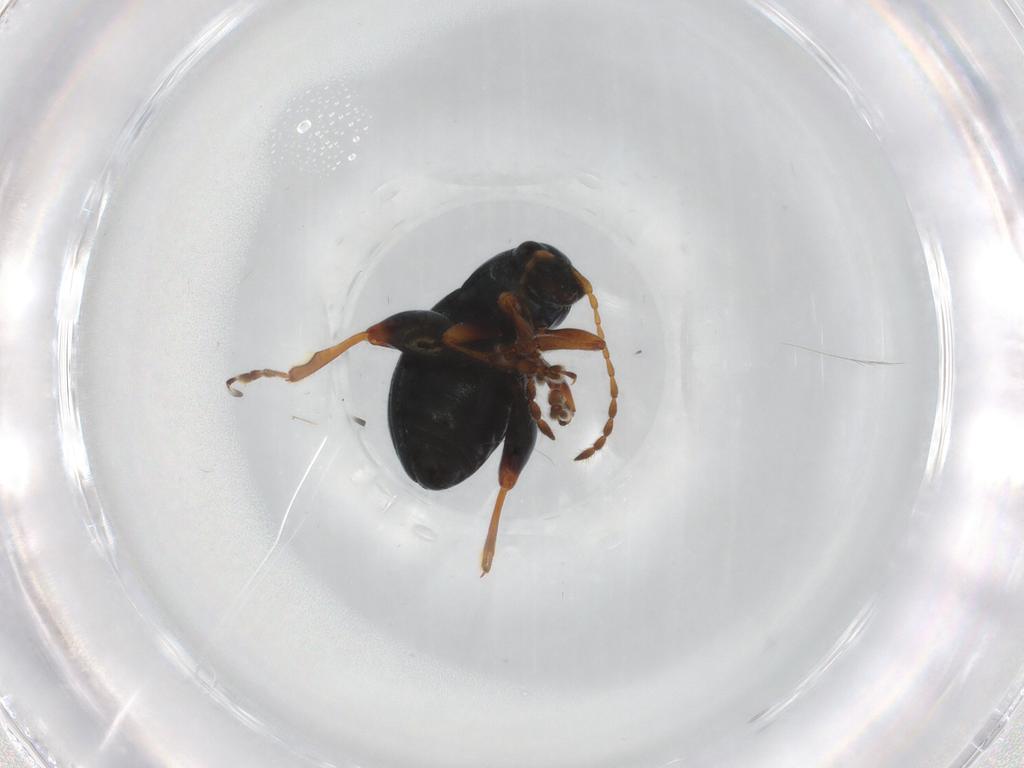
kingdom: Animalia
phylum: Arthropoda
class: Insecta
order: Coleoptera
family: Chrysomelidae
